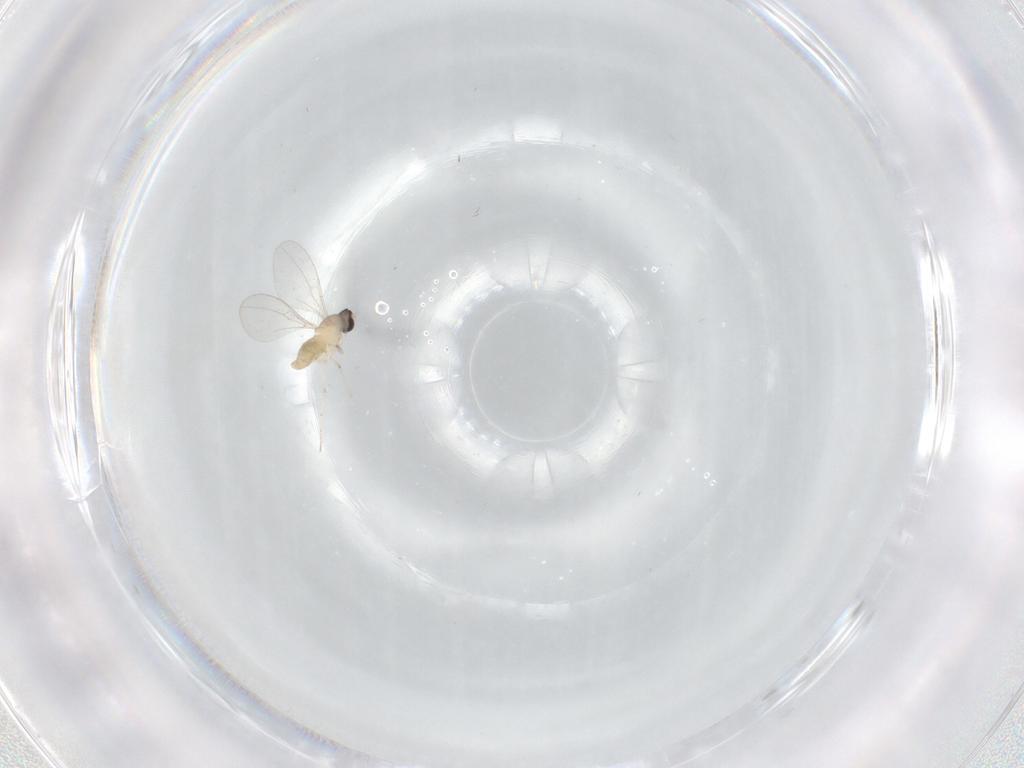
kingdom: Animalia
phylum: Arthropoda
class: Insecta
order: Diptera
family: Cecidomyiidae
